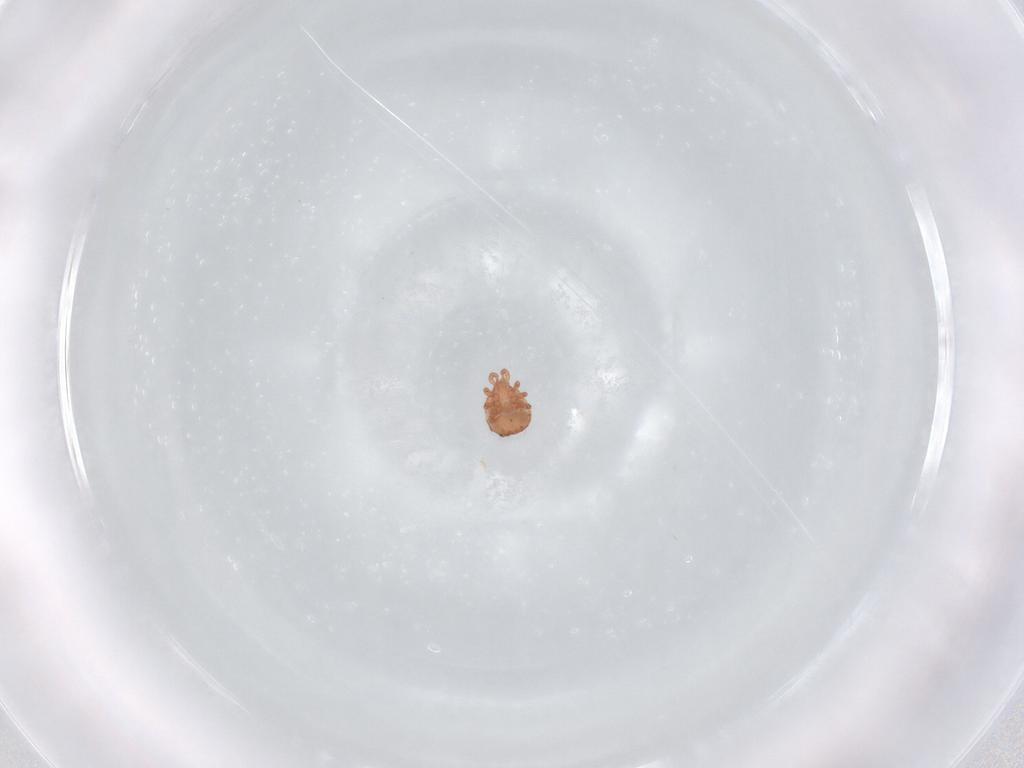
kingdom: Animalia
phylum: Arthropoda
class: Arachnida
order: Mesostigmata
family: Zerconidae
